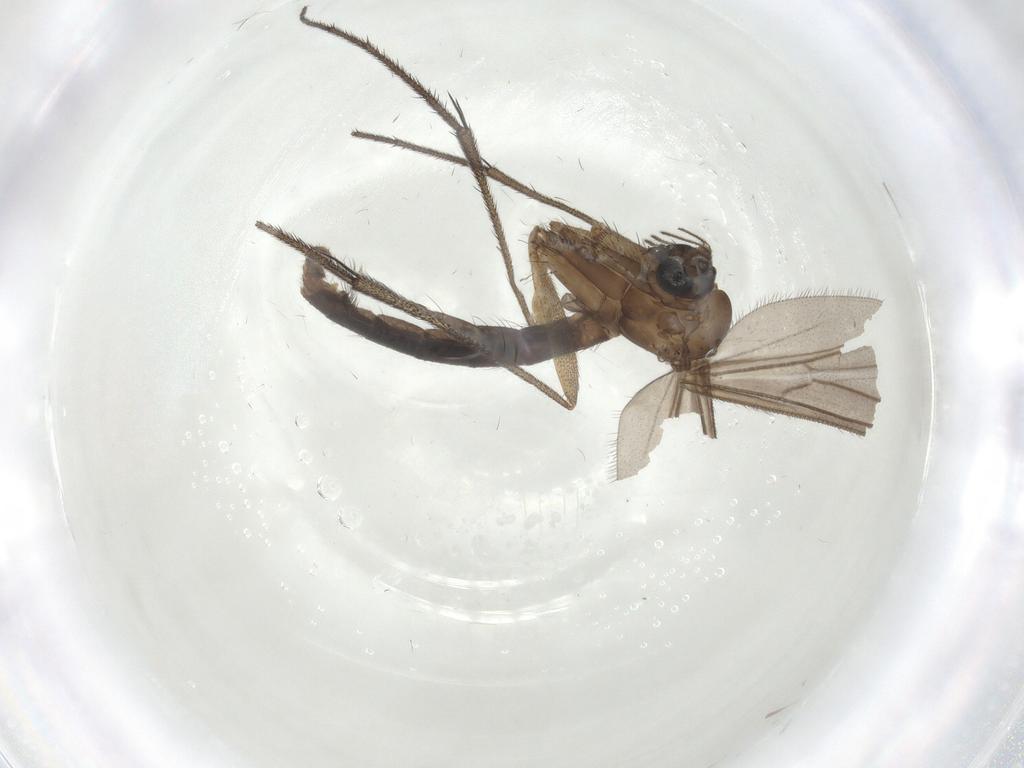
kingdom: Animalia
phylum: Arthropoda
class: Insecta
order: Diptera
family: Ditomyiidae
